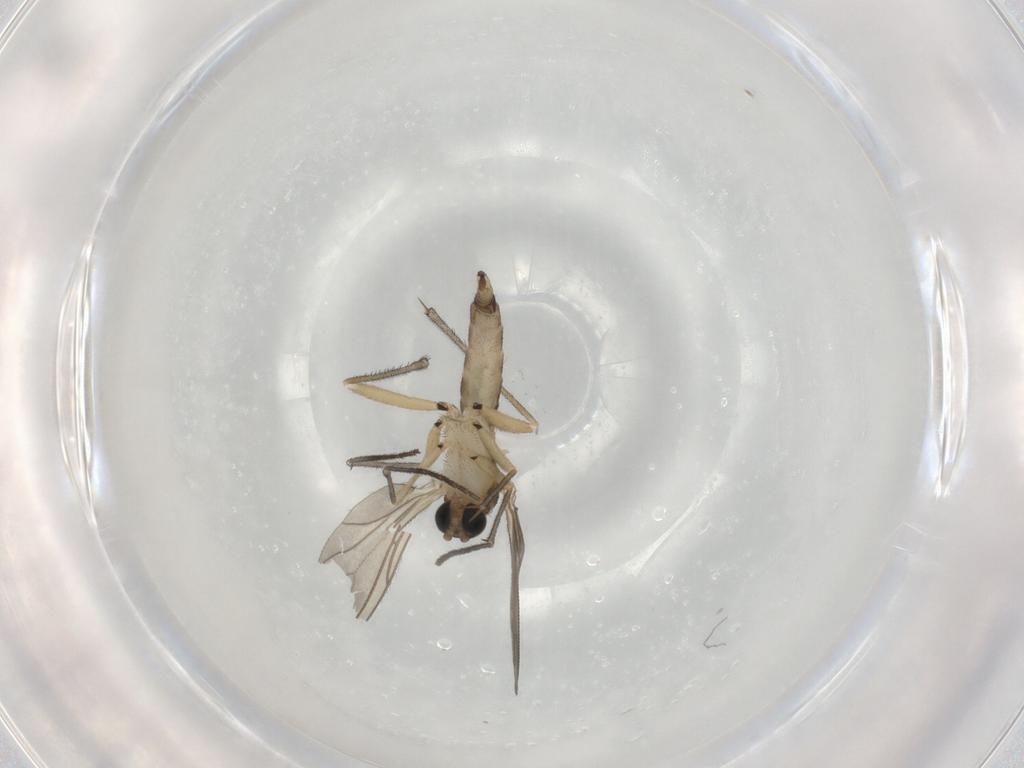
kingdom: Animalia
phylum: Arthropoda
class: Insecta
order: Diptera
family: Sciaridae
